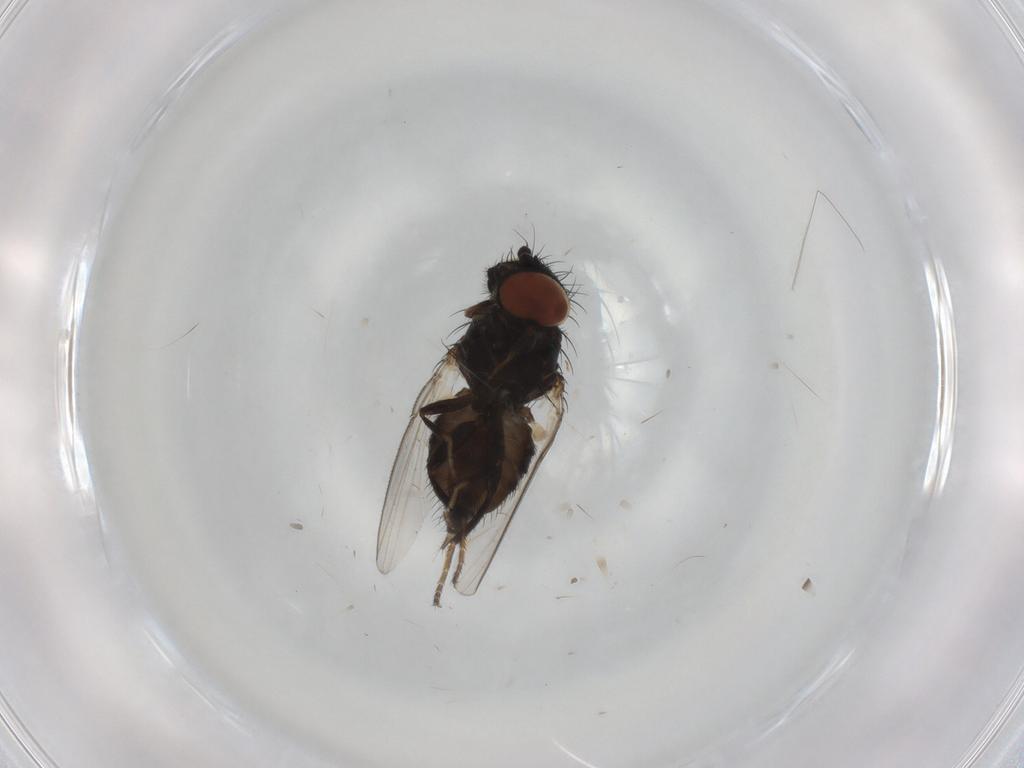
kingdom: Animalia
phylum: Arthropoda
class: Insecta
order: Diptera
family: Milichiidae
